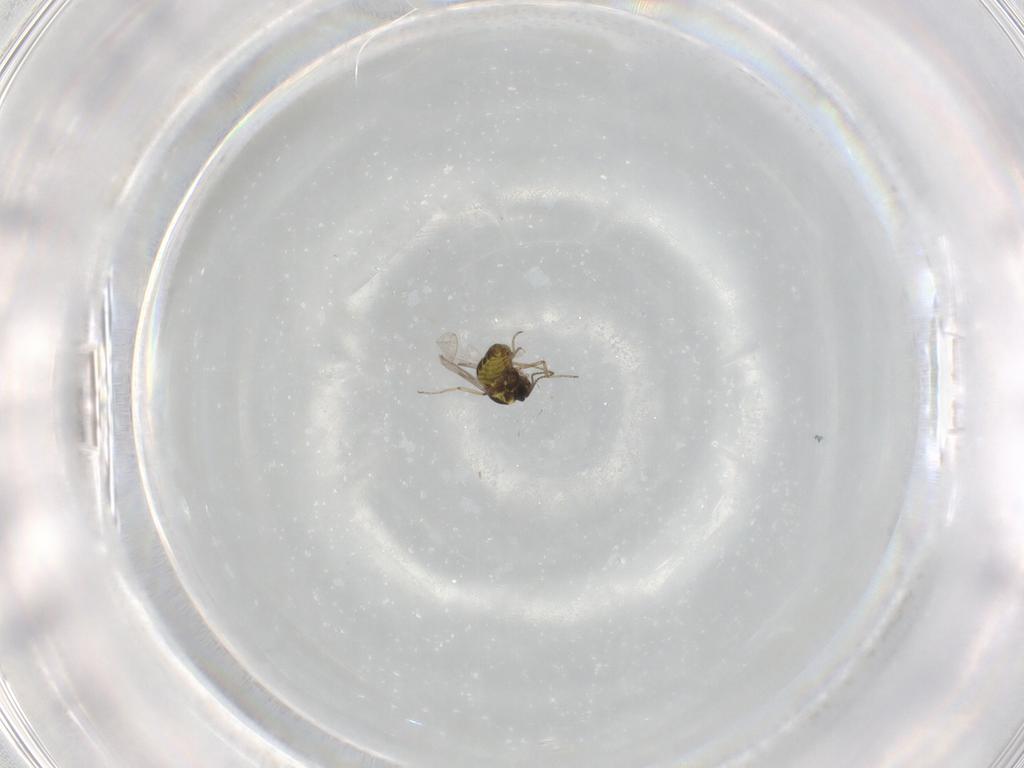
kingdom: Animalia
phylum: Arthropoda
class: Insecta
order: Diptera
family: Ceratopogonidae
